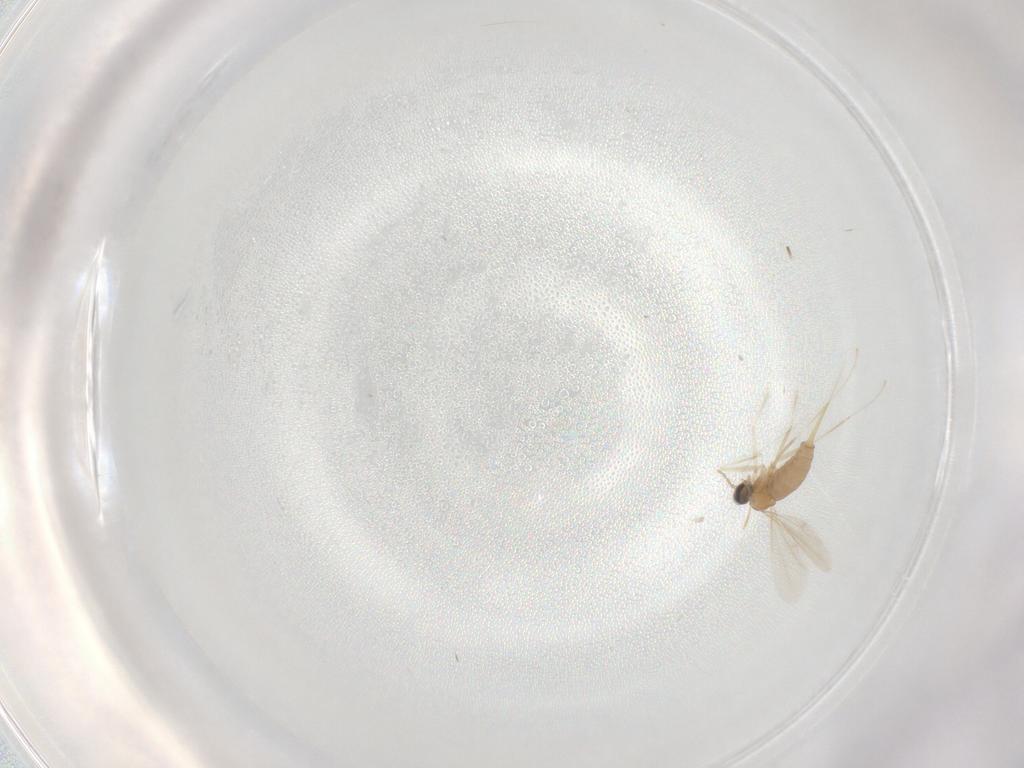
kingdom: Animalia
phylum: Arthropoda
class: Insecta
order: Diptera
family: Cecidomyiidae
